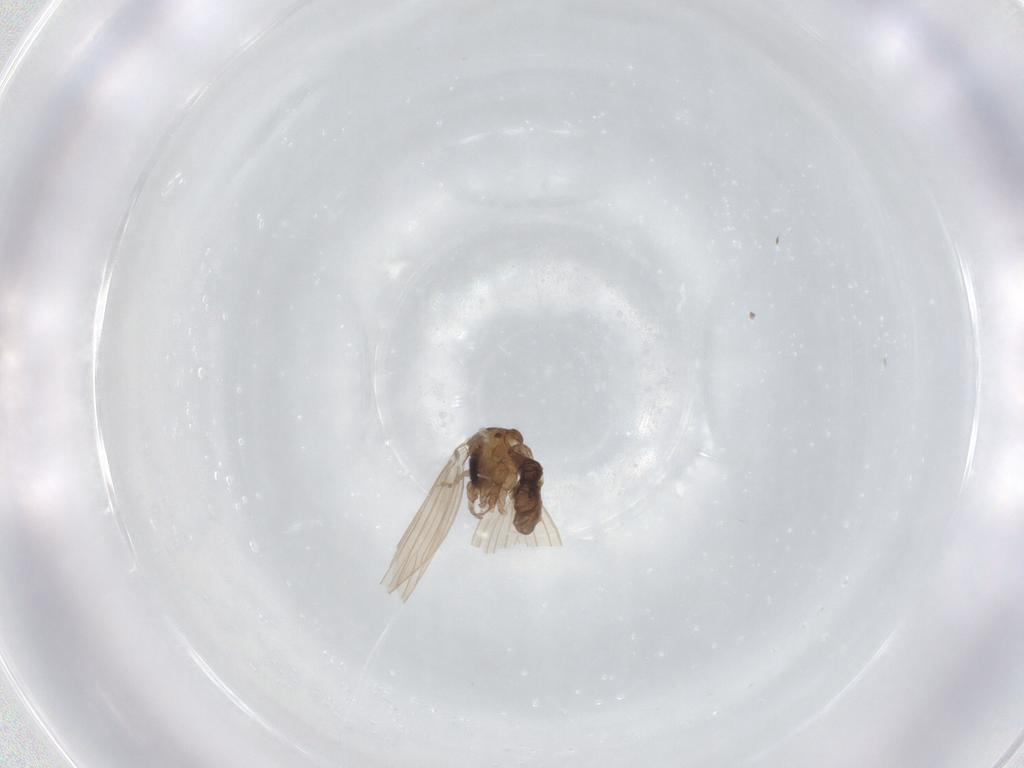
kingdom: Animalia
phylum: Arthropoda
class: Insecta
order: Diptera
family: Psychodidae
